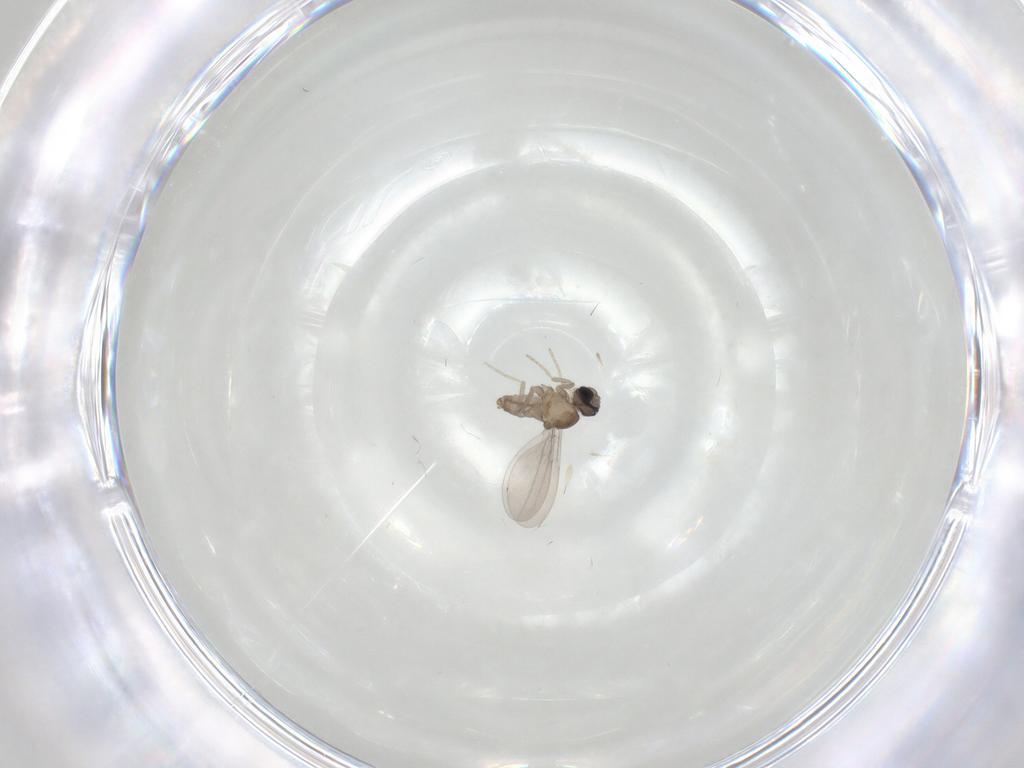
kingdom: Animalia
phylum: Arthropoda
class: Insecta
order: Diptera
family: Cecidomyiidae
